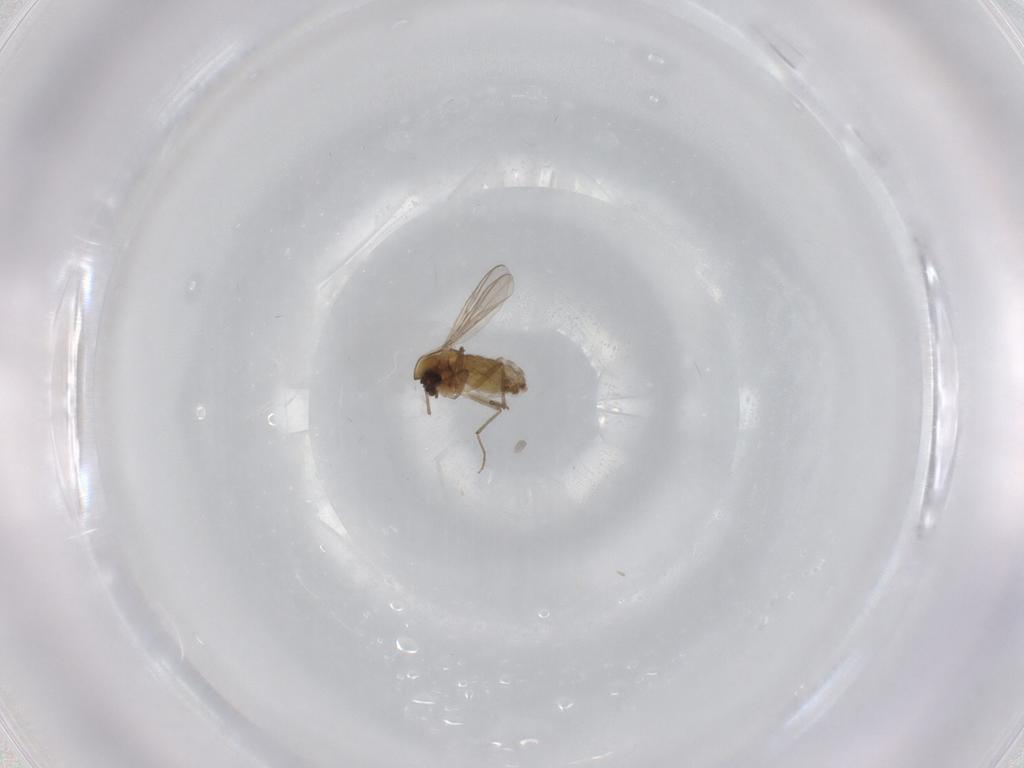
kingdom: Animalia
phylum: Arthropoda
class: Insecta
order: Diptera
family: Chironomidae
